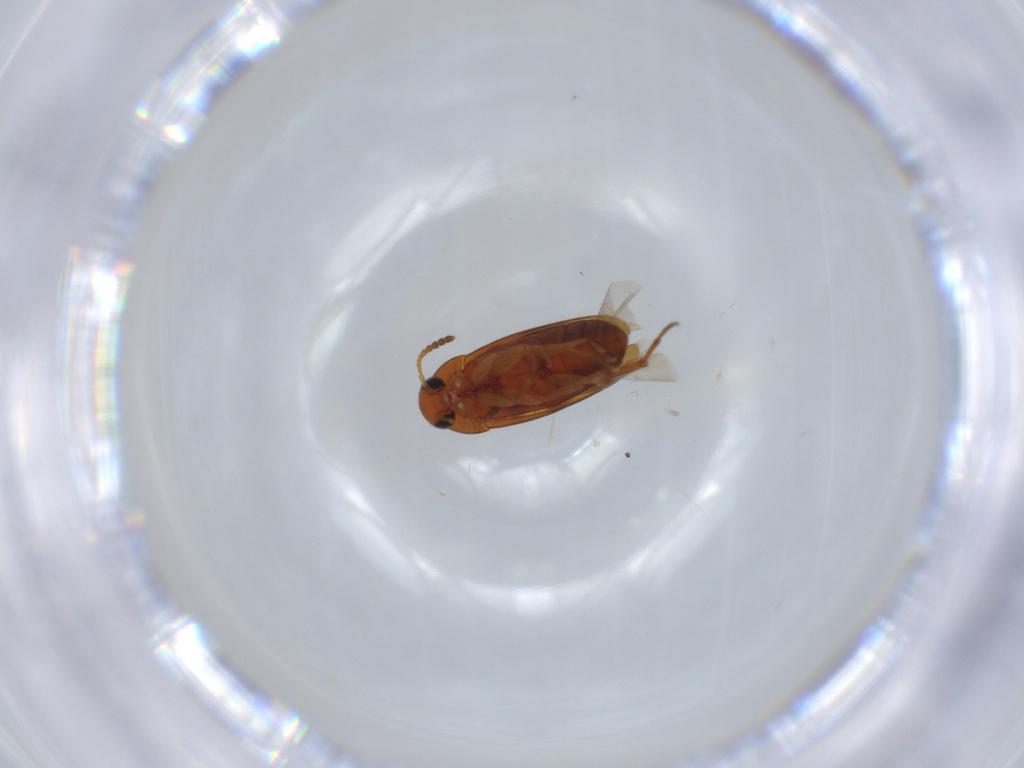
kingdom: Animalia
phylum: Arthropoda
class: Insecta
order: Coleoptera
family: Scraptiidae
